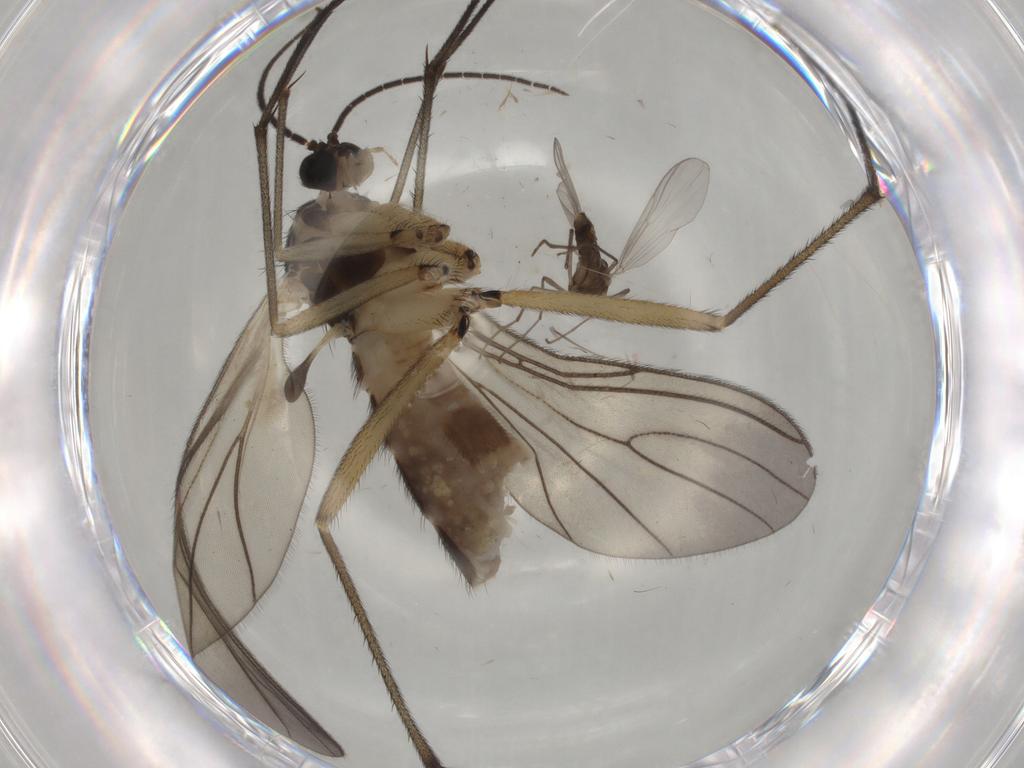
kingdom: Animalia
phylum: Arthropoda
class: Insecta
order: Diptera
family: Sciaridae
